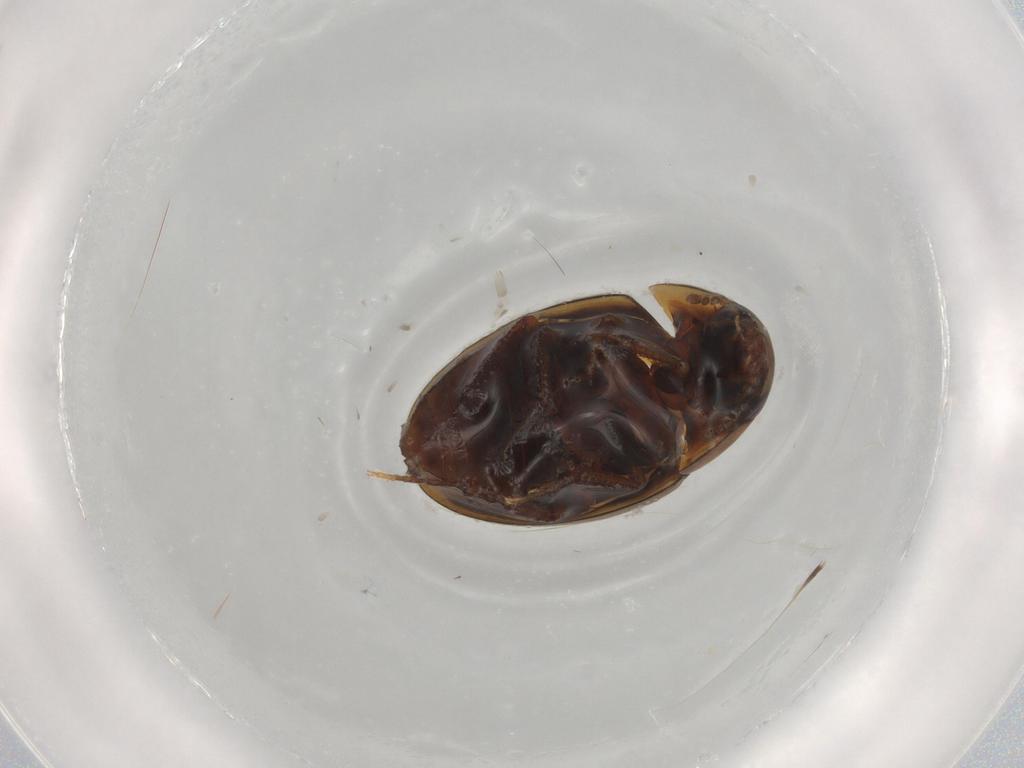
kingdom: Animalia
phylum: Arthropoda
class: Insecta
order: Coleoptera
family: Hydrophilidae
